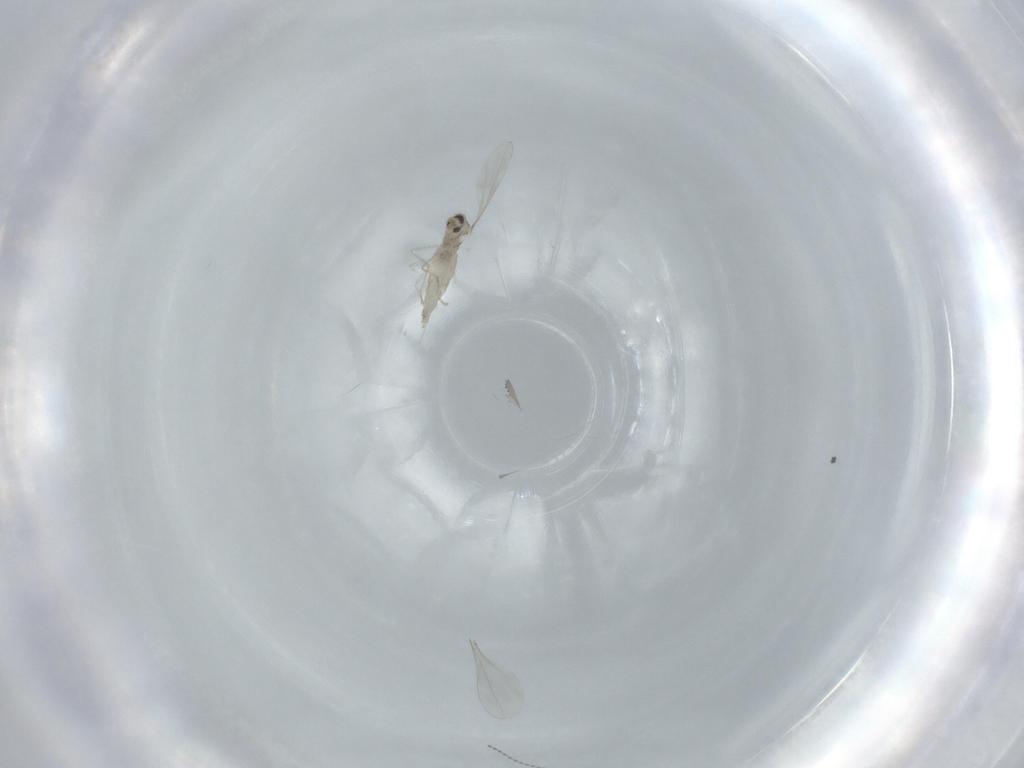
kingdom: Animalia
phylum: Arthropoda
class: Insecta
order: Diptera
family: Cecidomyiidae
